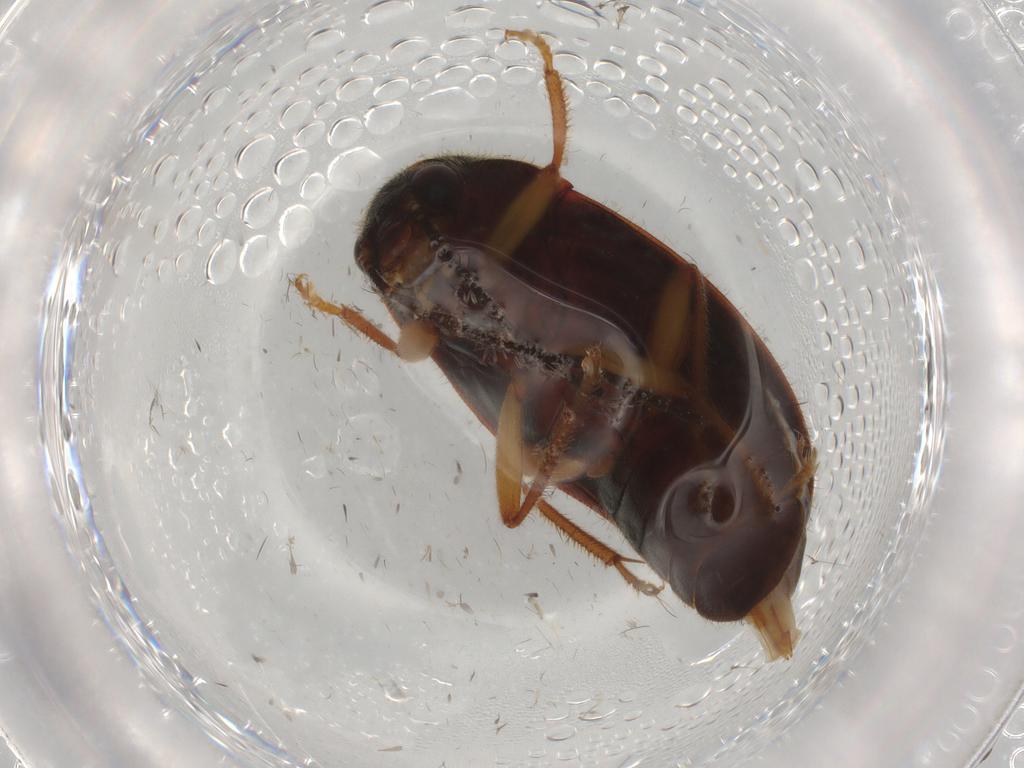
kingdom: Animalia
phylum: Arthropoda
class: Insecta
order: Coleoptera
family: Ptilodactylidae
